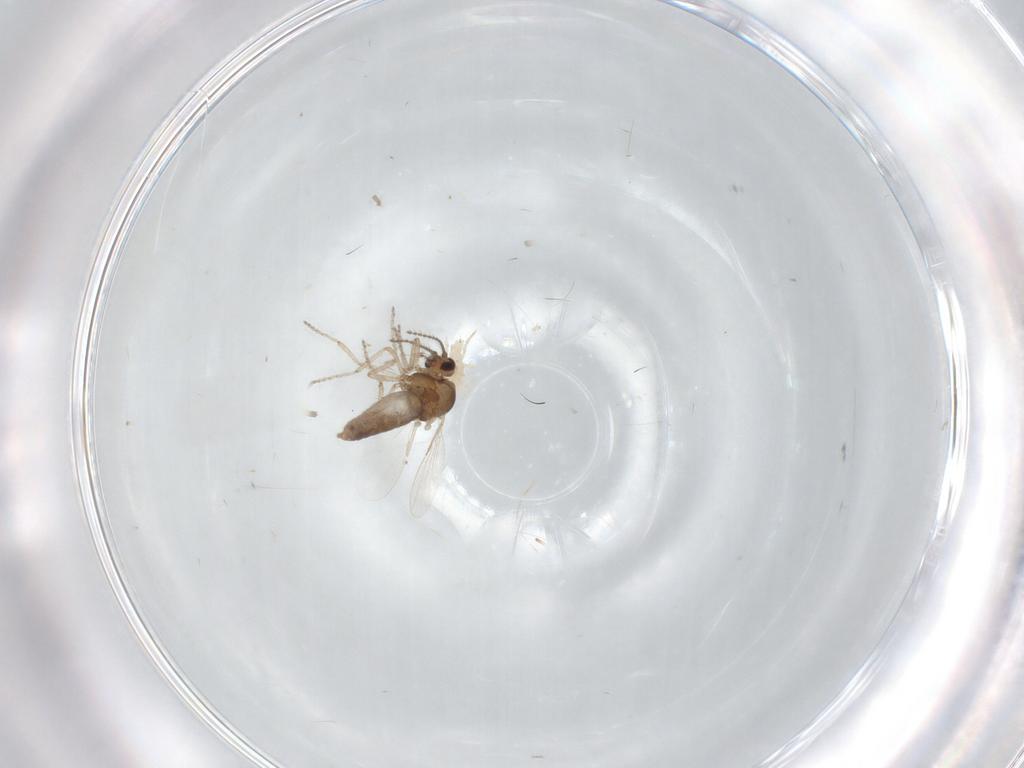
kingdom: Animalia
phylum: Arthropoda
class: Insecta
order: Diptera
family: Ceratopogonidae
